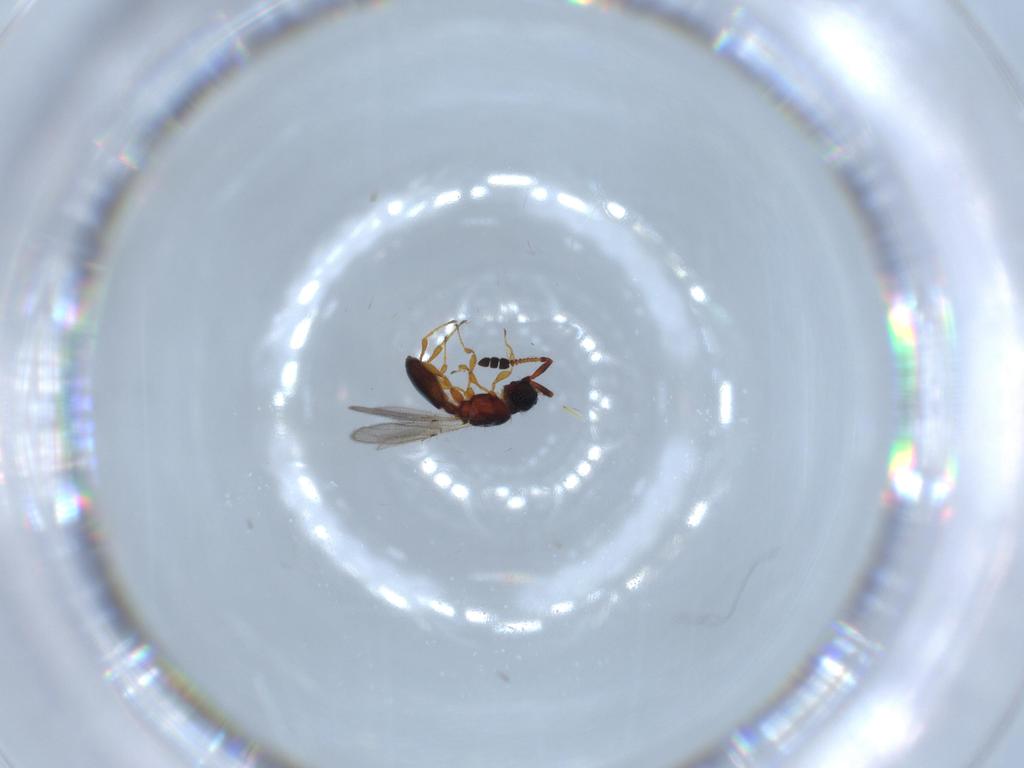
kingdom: Animalia
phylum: Arthropoda
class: Insecta
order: Hymenoptera
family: Diapriidae
